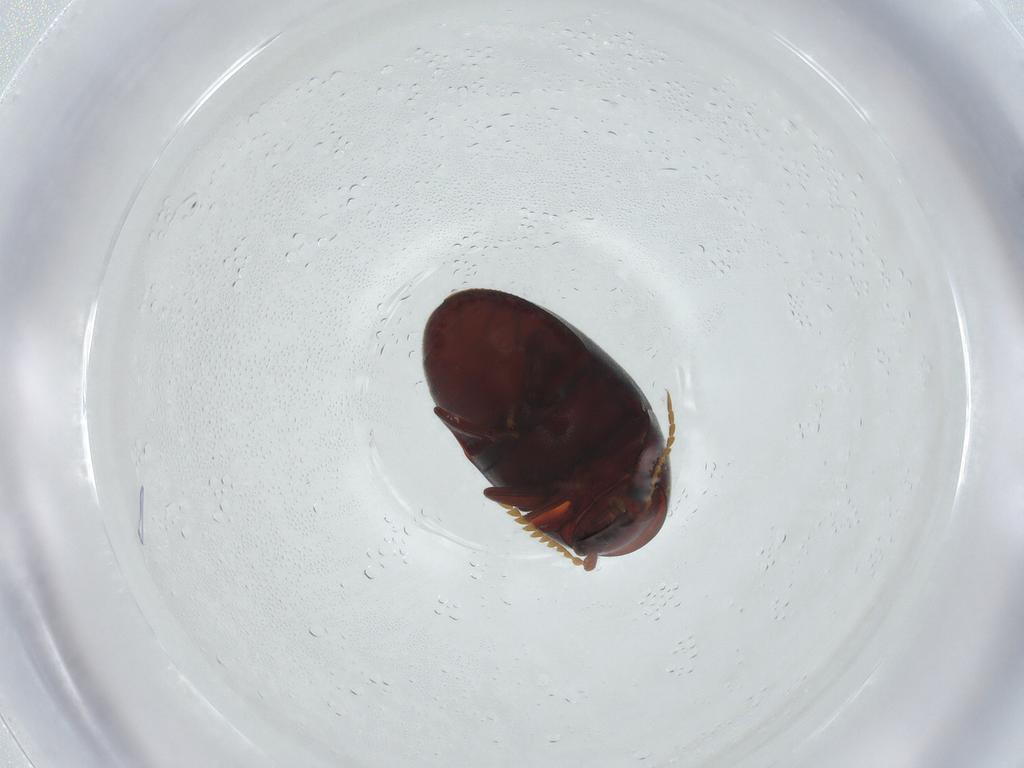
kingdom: Animalia
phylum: Arthropoda
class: Insecta
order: Coleoptera
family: Ptinidae
